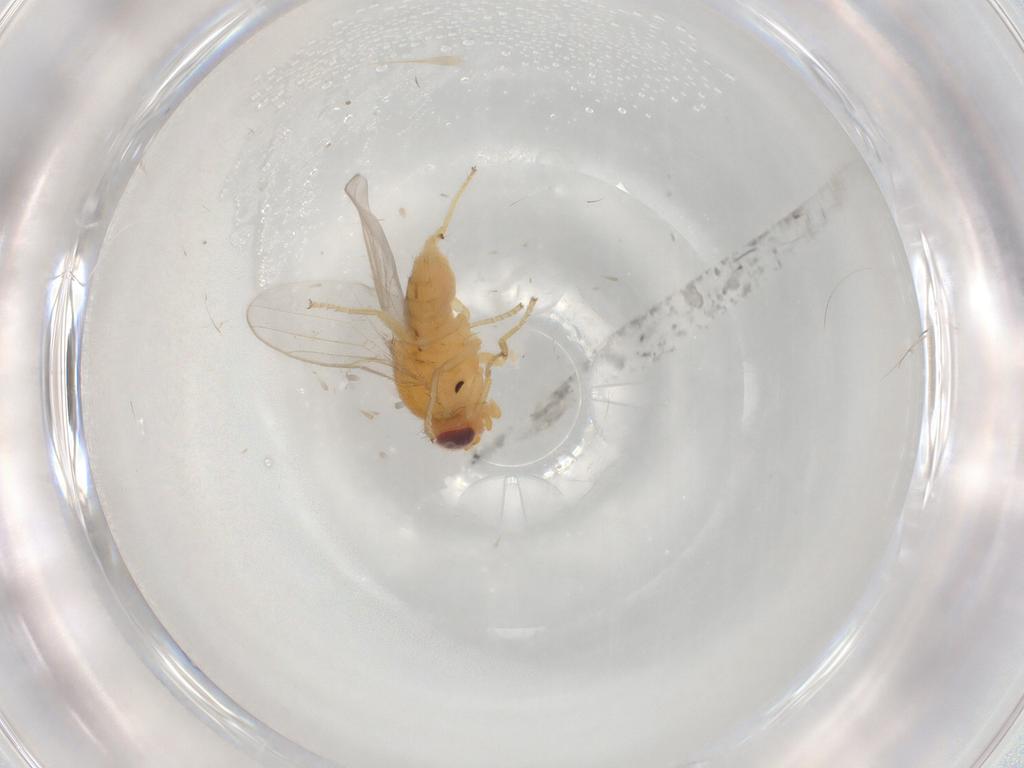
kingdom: Animalia
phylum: Arthropoda
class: Insecta
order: Diptera
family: Chloropidae
